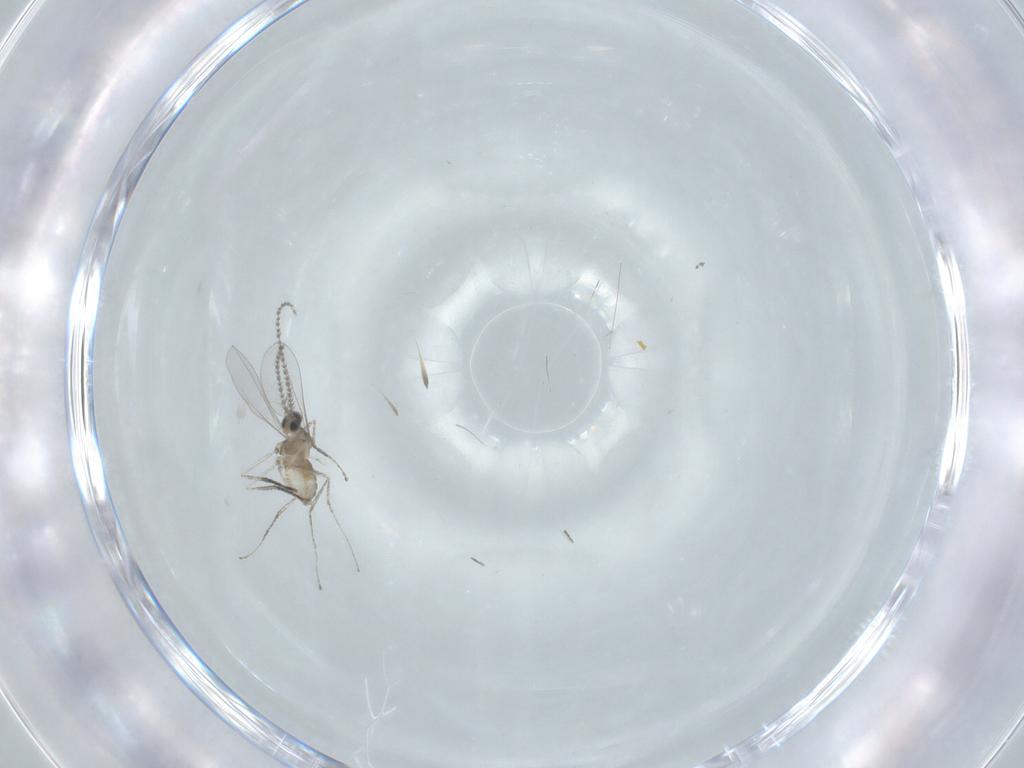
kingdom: Animalia
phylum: Arthropoda
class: Insecta
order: Diptera
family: Cecidomyiidae
